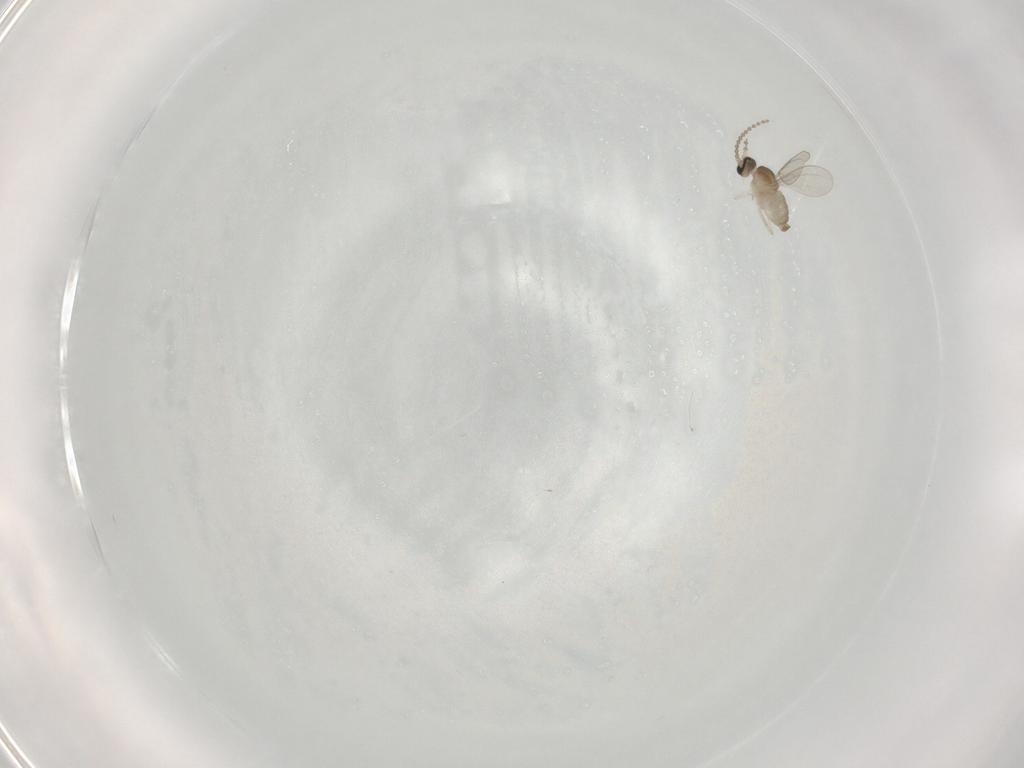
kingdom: Animalia
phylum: Arthropoda
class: Insecta
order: Diptera
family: Cecidomyiidae
